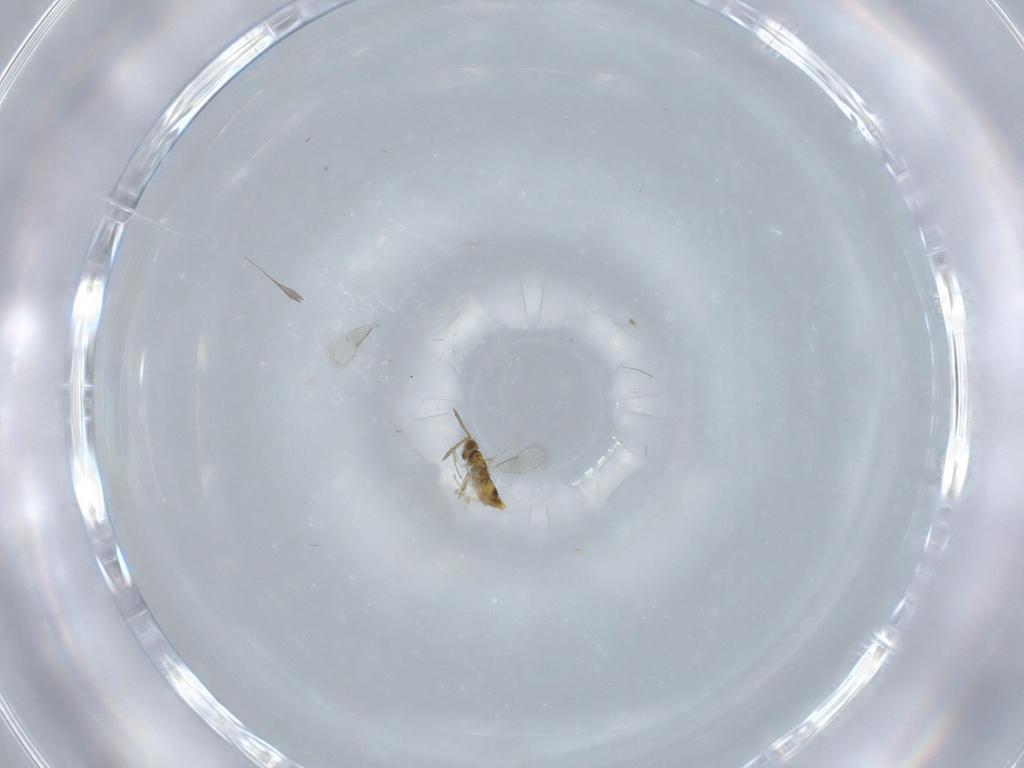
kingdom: Animalia
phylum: Arthropoda
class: Insecta
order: Hymenoptera
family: Aphelinidae
